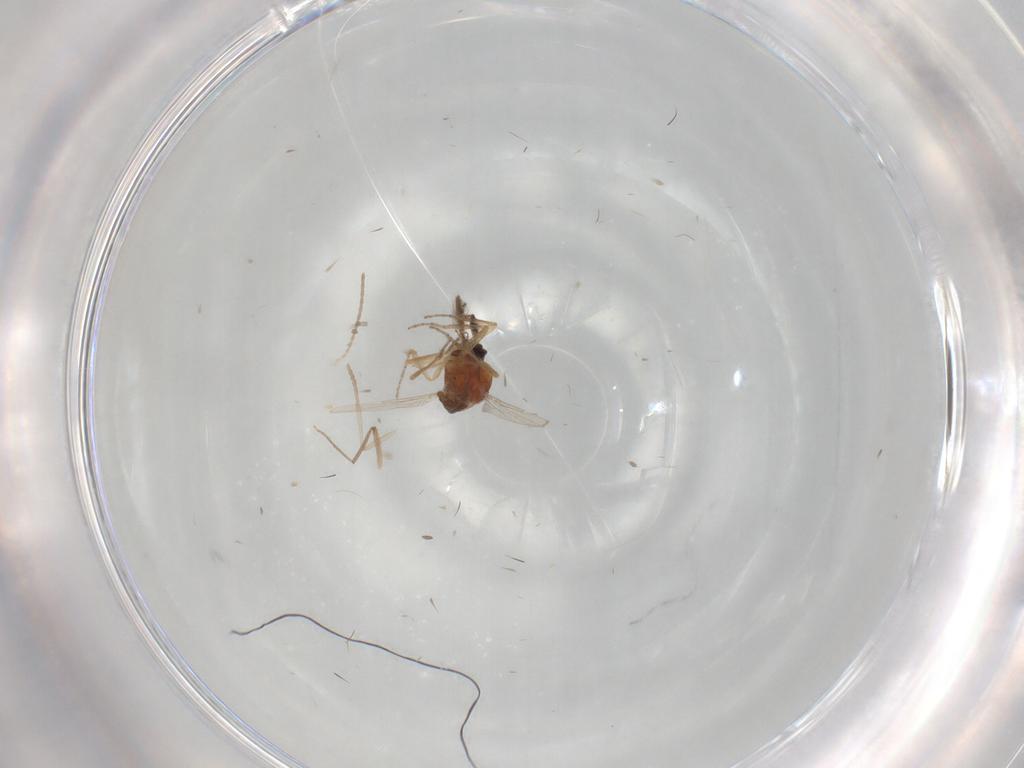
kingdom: Animalia
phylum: Arthropoda
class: Insecta
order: Diptera
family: Ceratopogonidae
